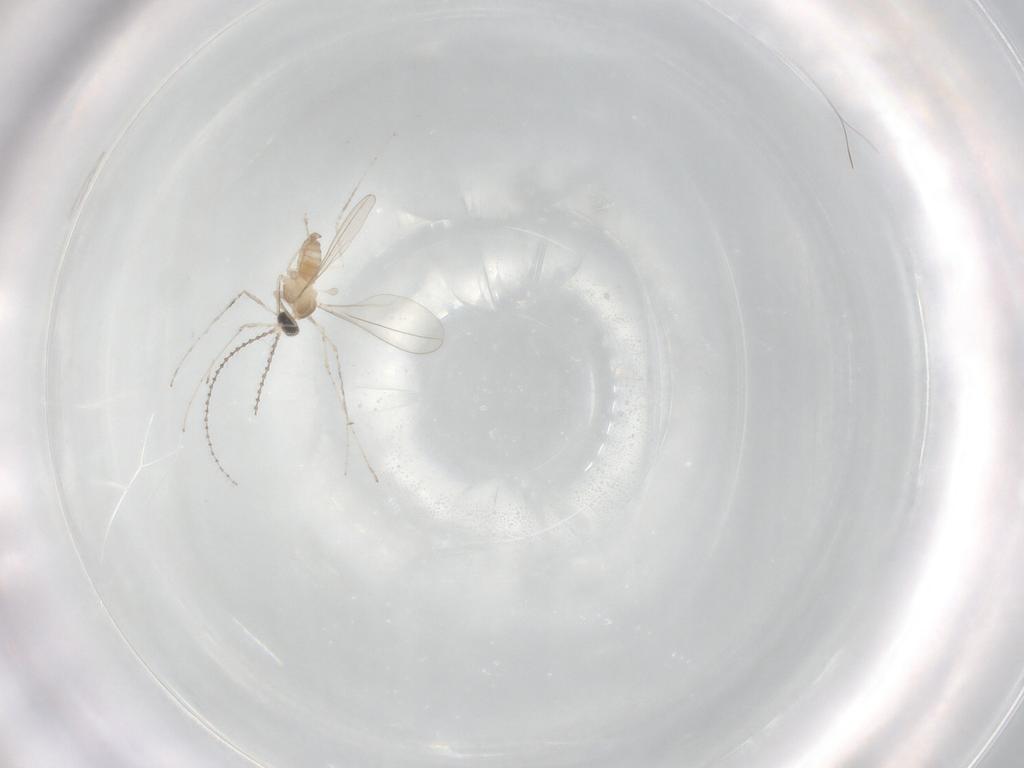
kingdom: Animalia
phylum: Arthropoda
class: Insecta
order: Diptera
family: Cecidomyiidae
